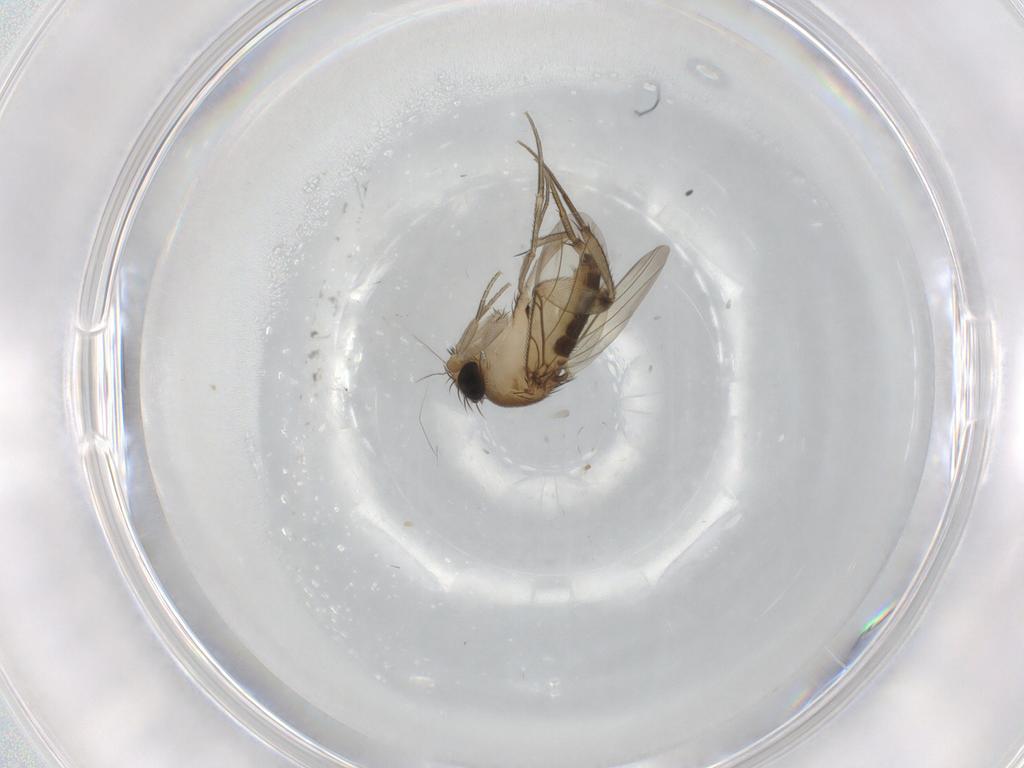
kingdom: Animalia
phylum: Arthropoda
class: Insecta
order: Diptera
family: Phoridae
